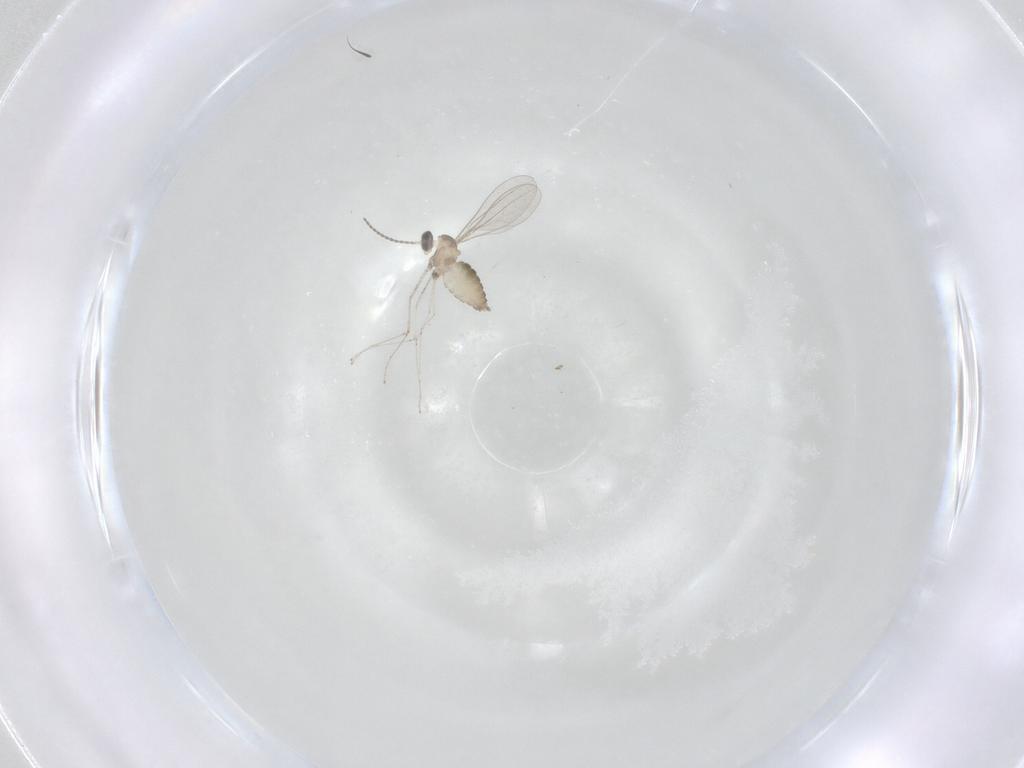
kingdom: Animalia
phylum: Arthropoda
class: Insecta
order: Diptera
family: Cecidomyiidae
